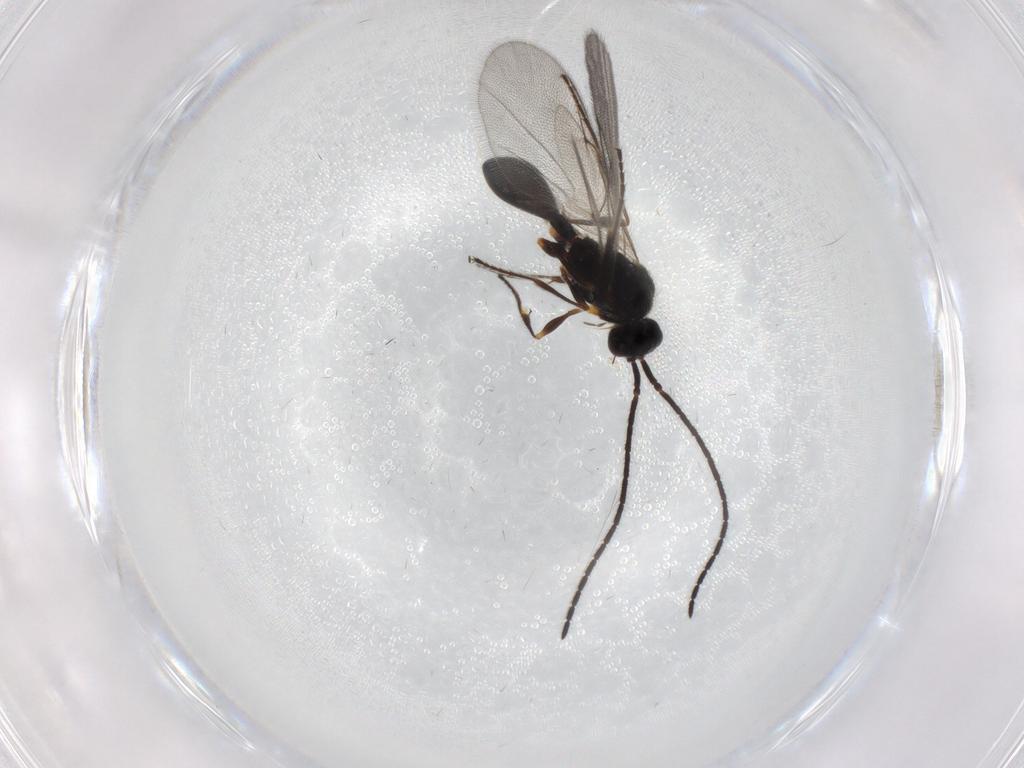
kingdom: Animalia
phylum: Arthropoda
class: Insecta
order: Hymenoptera
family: Diapriidae
